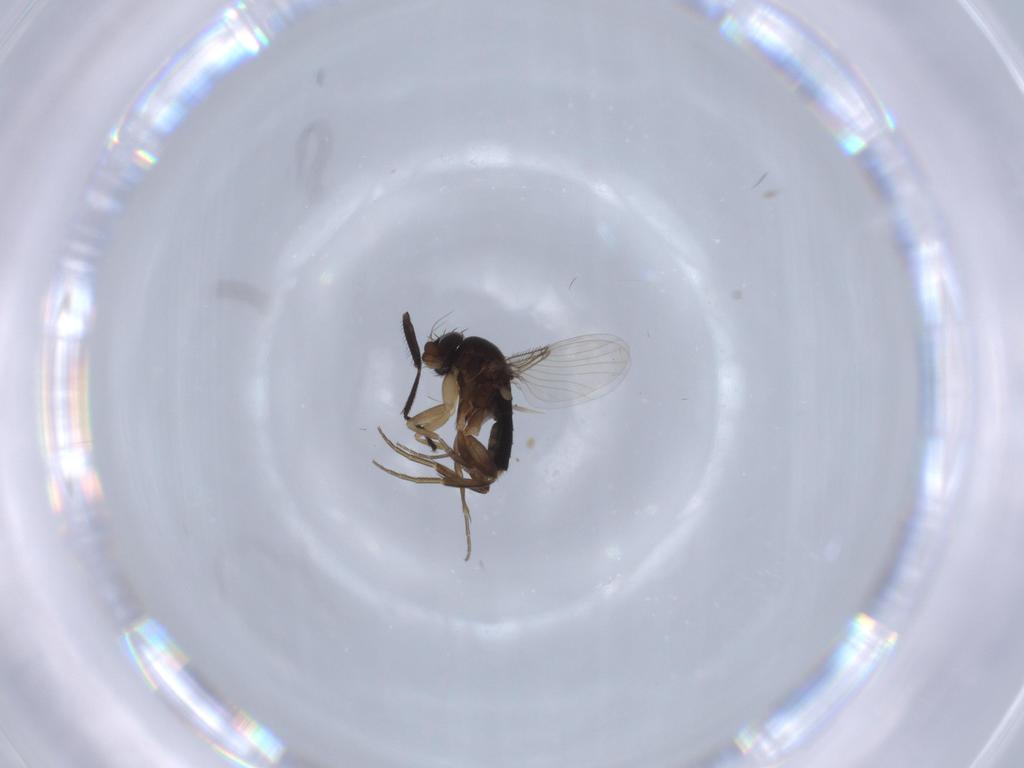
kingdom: Animalia
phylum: Arthropoda
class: Insecta
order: Diptera
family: Phoridae
